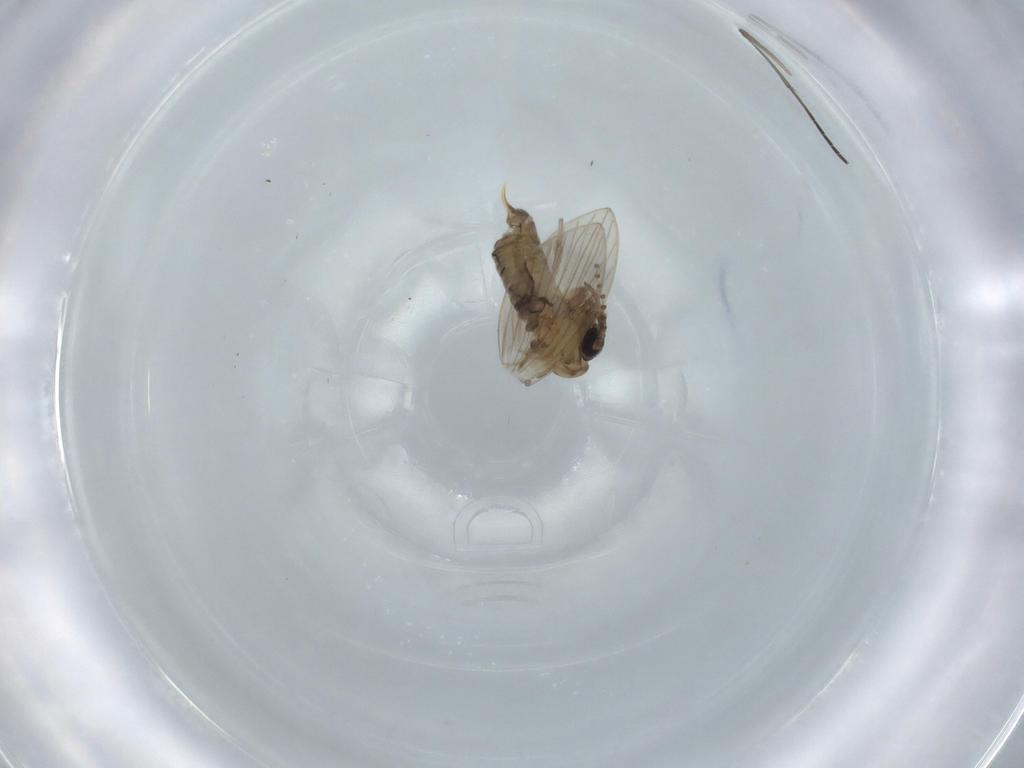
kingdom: Animalia
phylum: Arthropoda
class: Insecta
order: Diptera
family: Psychodidae
